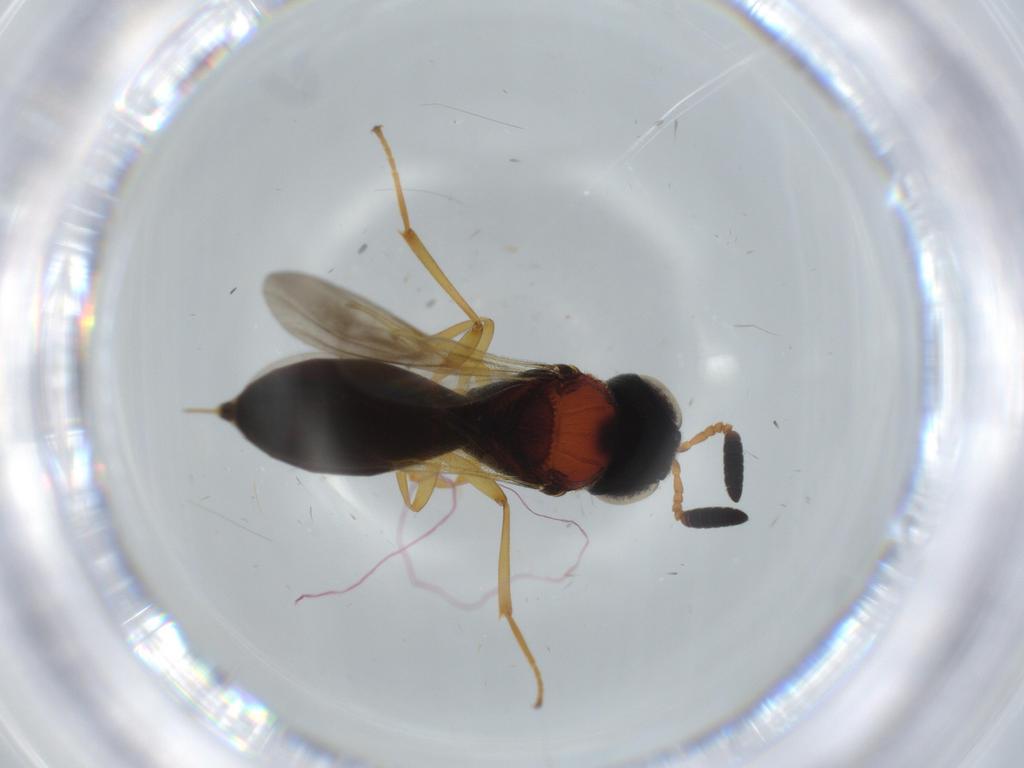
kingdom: Animalia
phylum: Arthropoda
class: Insecta
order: Hymenoptera
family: Formicidae
